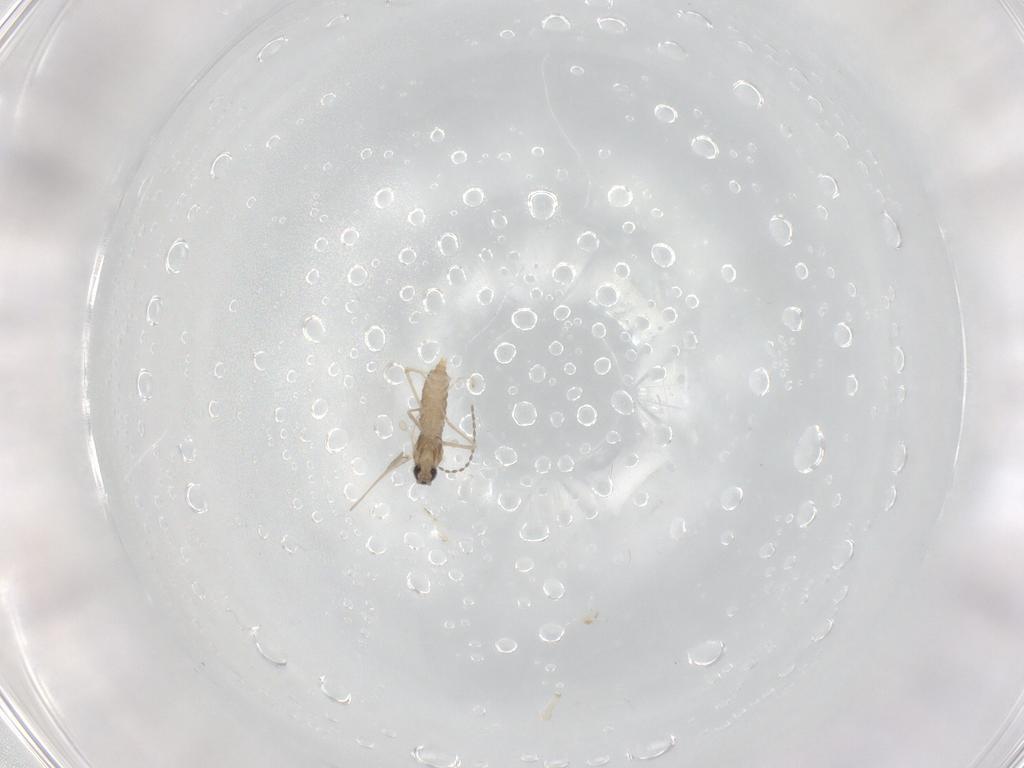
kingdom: Animalia
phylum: Arthropoda
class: Insecta
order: Diptera
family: Cecidomyiidae
